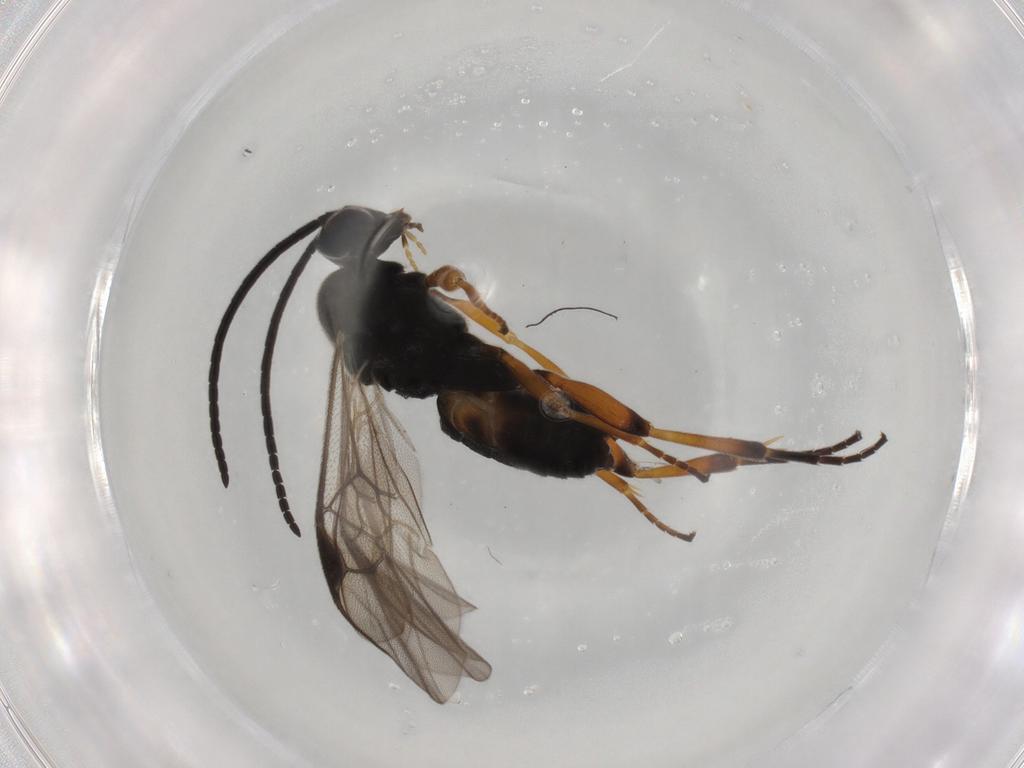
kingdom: Animalia
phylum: Arthropoda
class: Insecta
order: Hymenoptera
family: Braconidae
